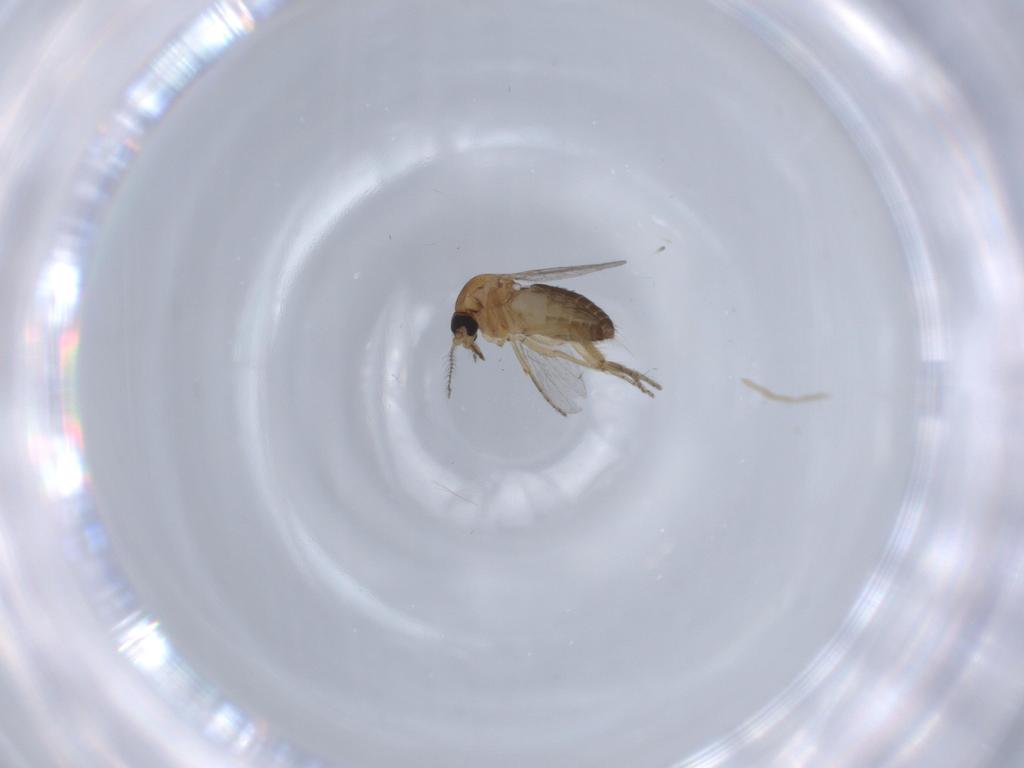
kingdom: Animalia
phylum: Arthropoda
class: Insecta
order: Diptera
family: Ceratopogonidae
